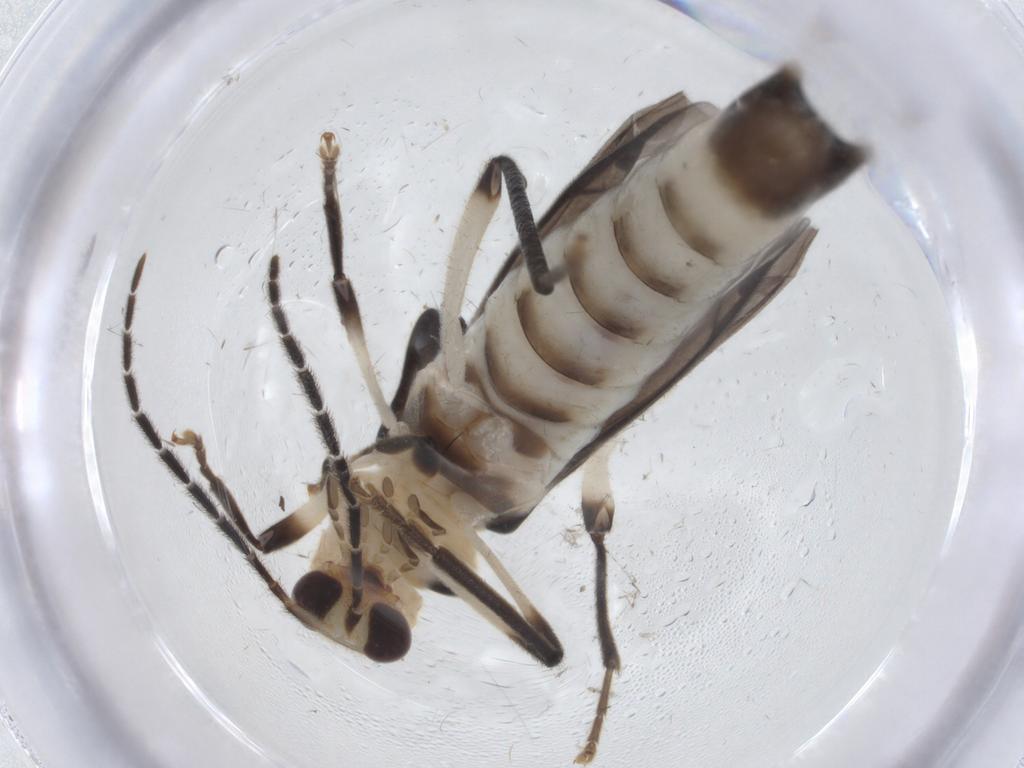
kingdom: Animalia
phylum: Arthropoda
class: Insecta
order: Coleoptera
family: Cantharidae
